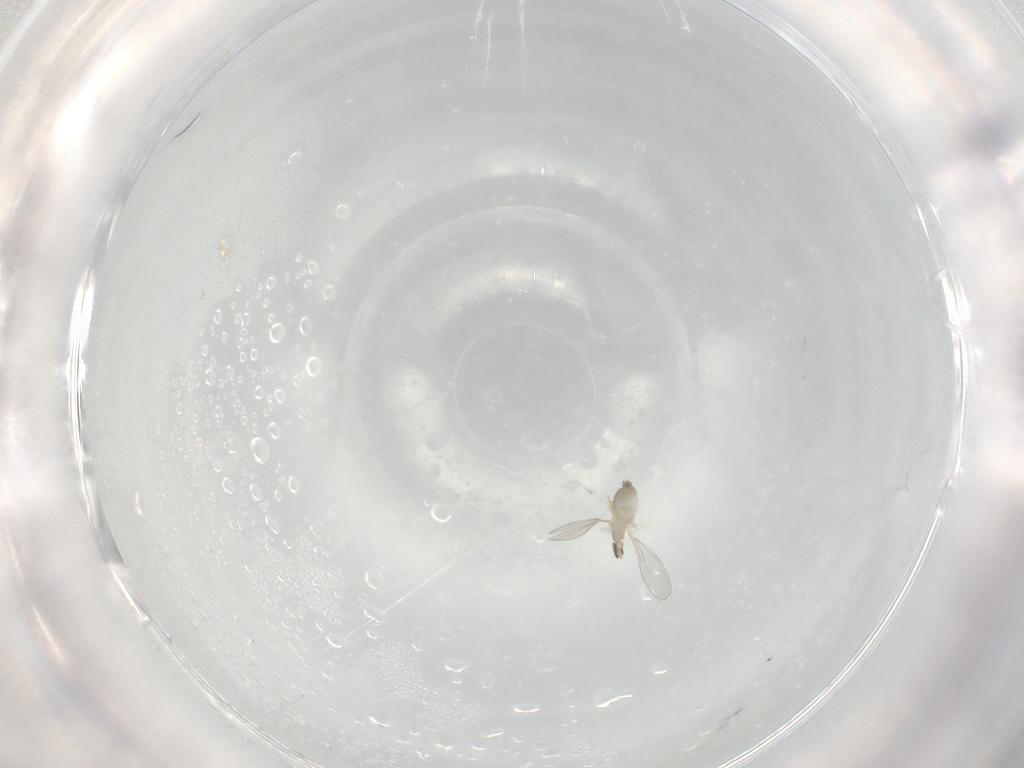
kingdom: Animalia
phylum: Arthropoda
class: Insecta
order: Diptera
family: Cecidomyiidae
